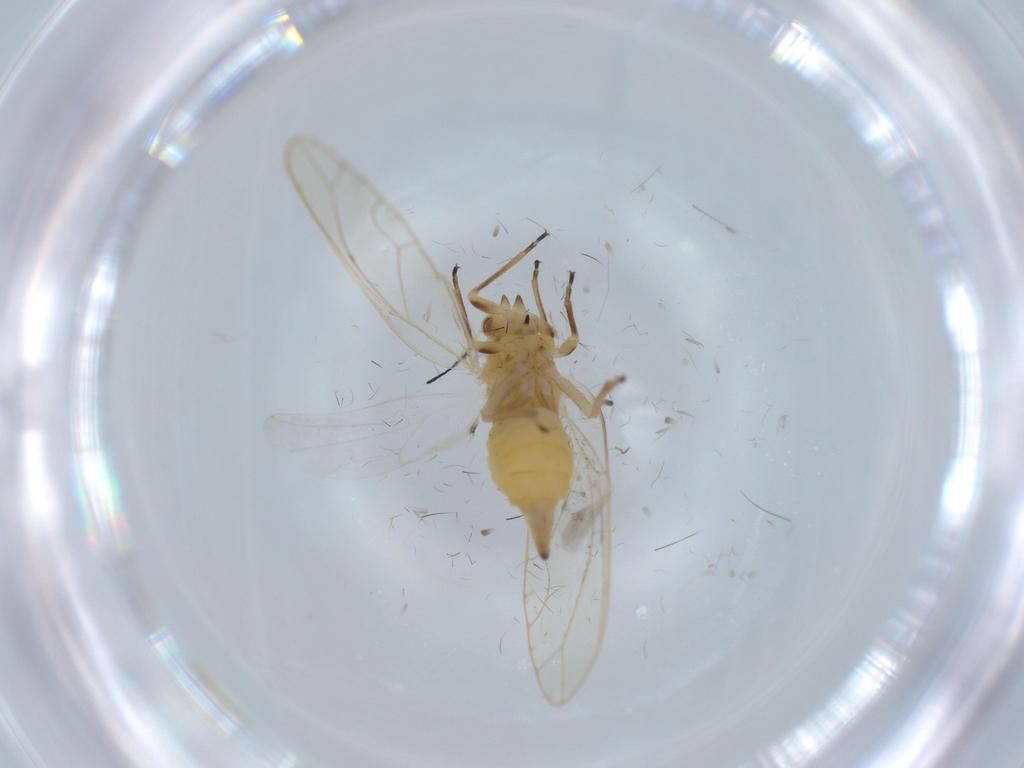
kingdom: Animalia
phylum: Arthropoda
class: Insecta
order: Hemiptera
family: Cercopidae
